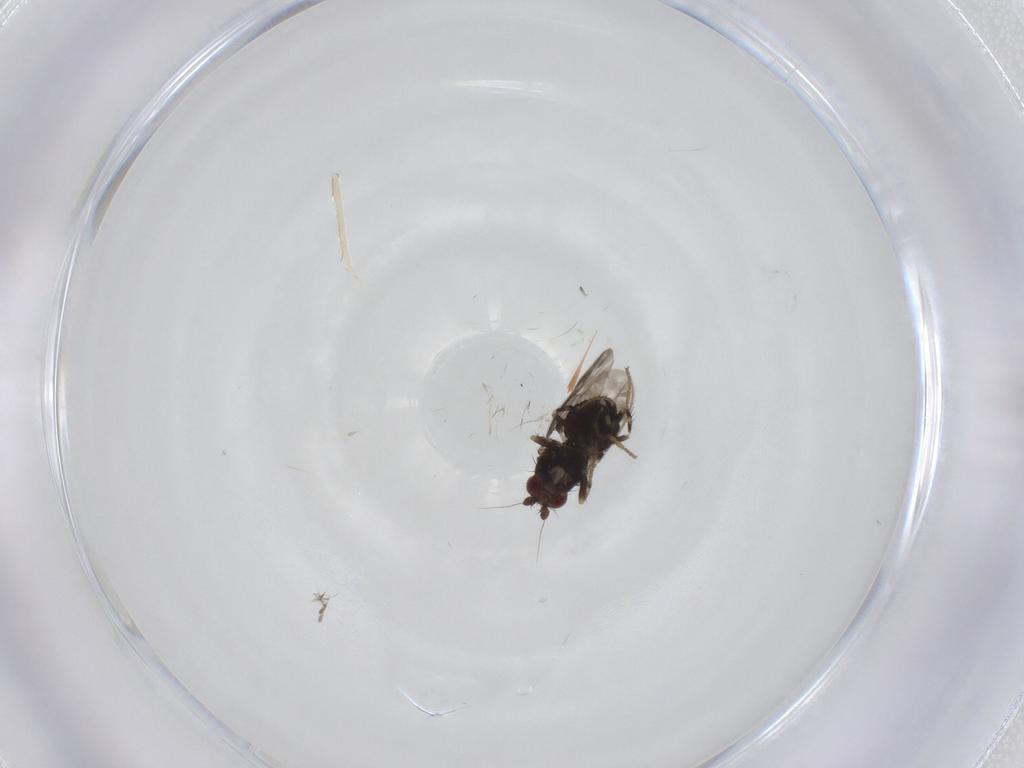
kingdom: Animalia
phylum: Arthropoda
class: Insecta
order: Diptera
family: Sphaeroceridae
